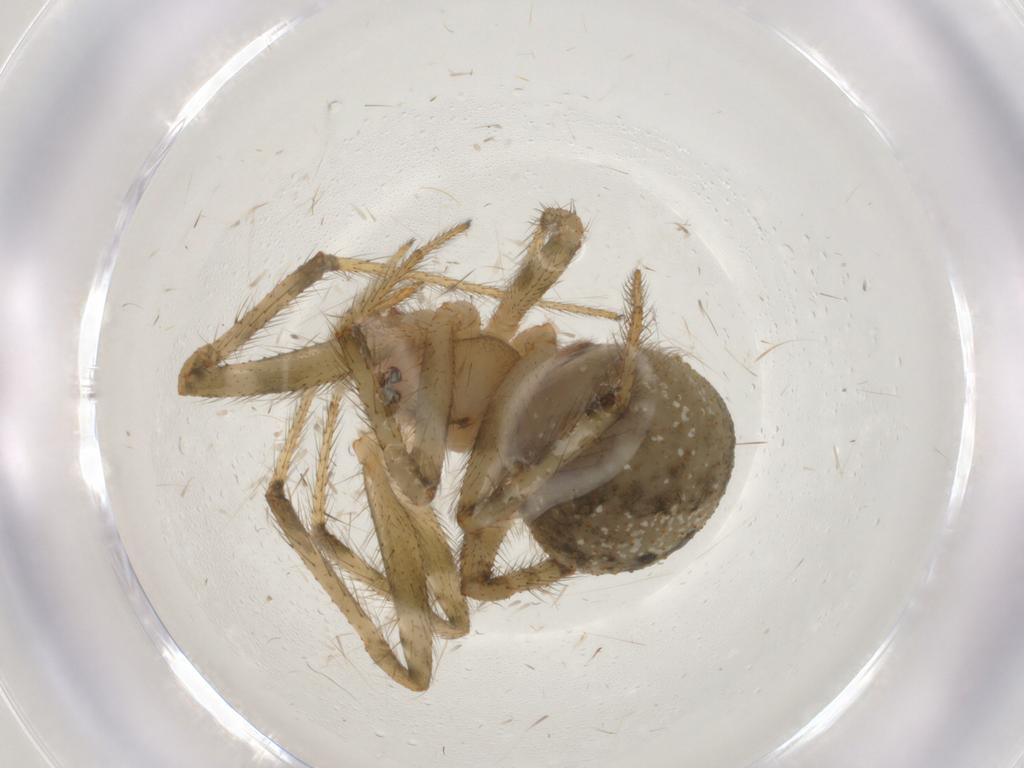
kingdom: Animalia
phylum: Arthropoda
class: Arachnida
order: Araneae
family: Theridiidae
